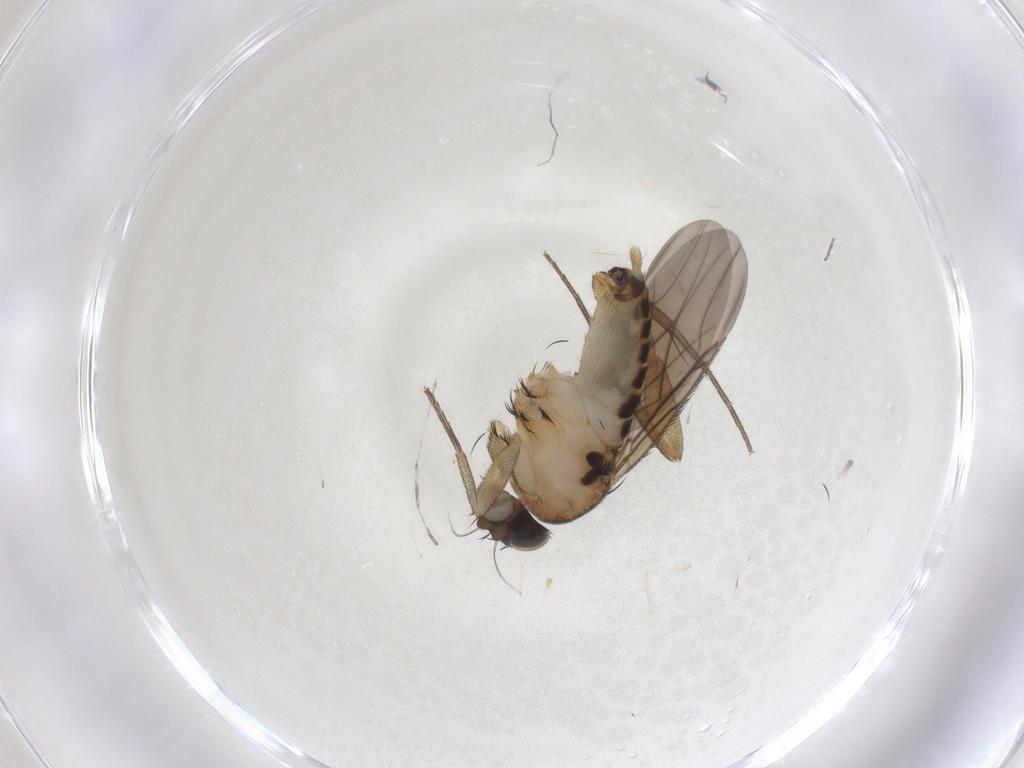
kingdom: Animalia
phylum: Arthropoda
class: Insecta
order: Diptera
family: Phoridae
